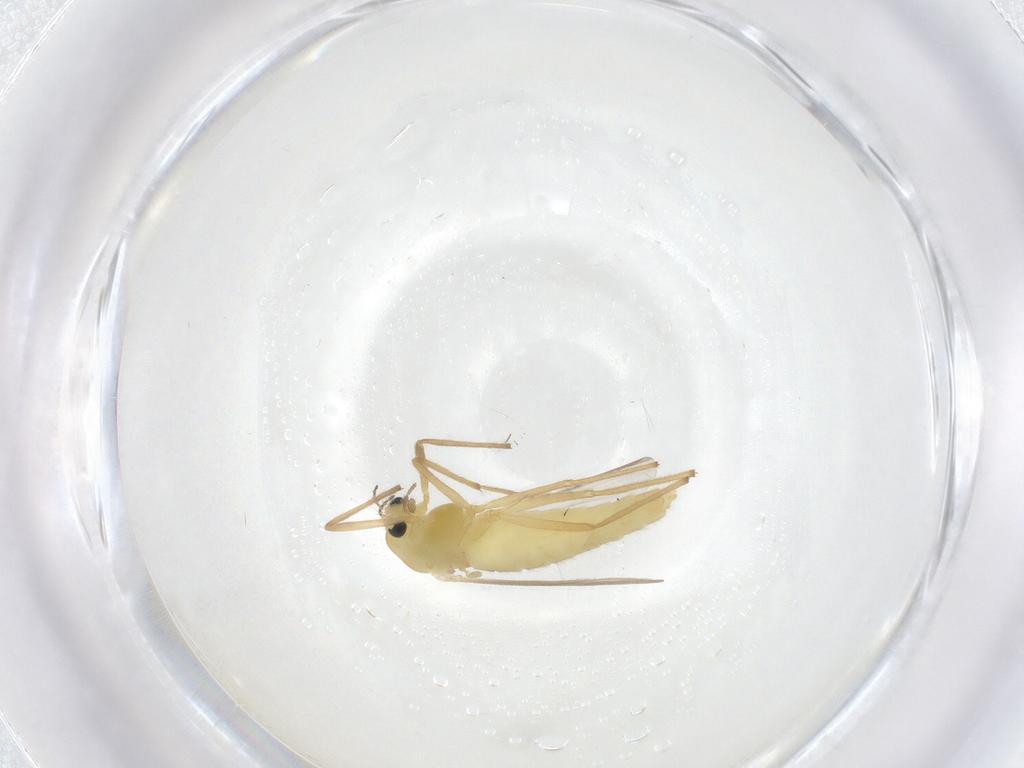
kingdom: Animalia
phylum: Arthropoda
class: Insecta
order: Diptera
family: Chironomidae
